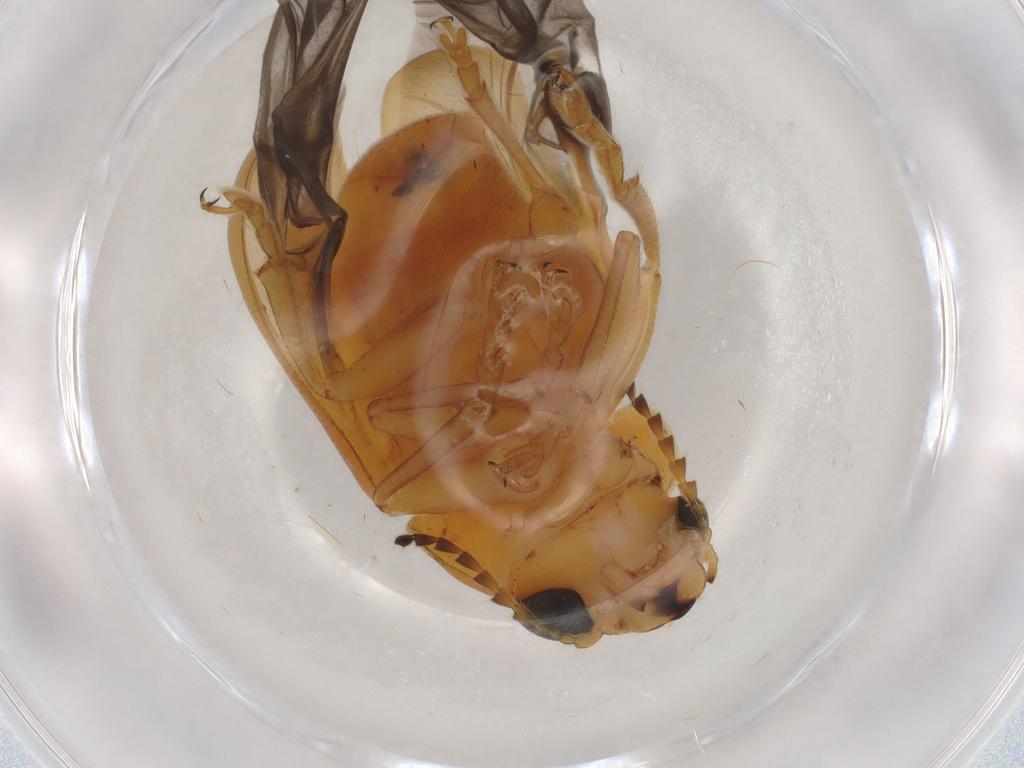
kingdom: Animalia
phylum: Arthropoda
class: Insecta
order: Coleoptera
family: Chrysomelidae
